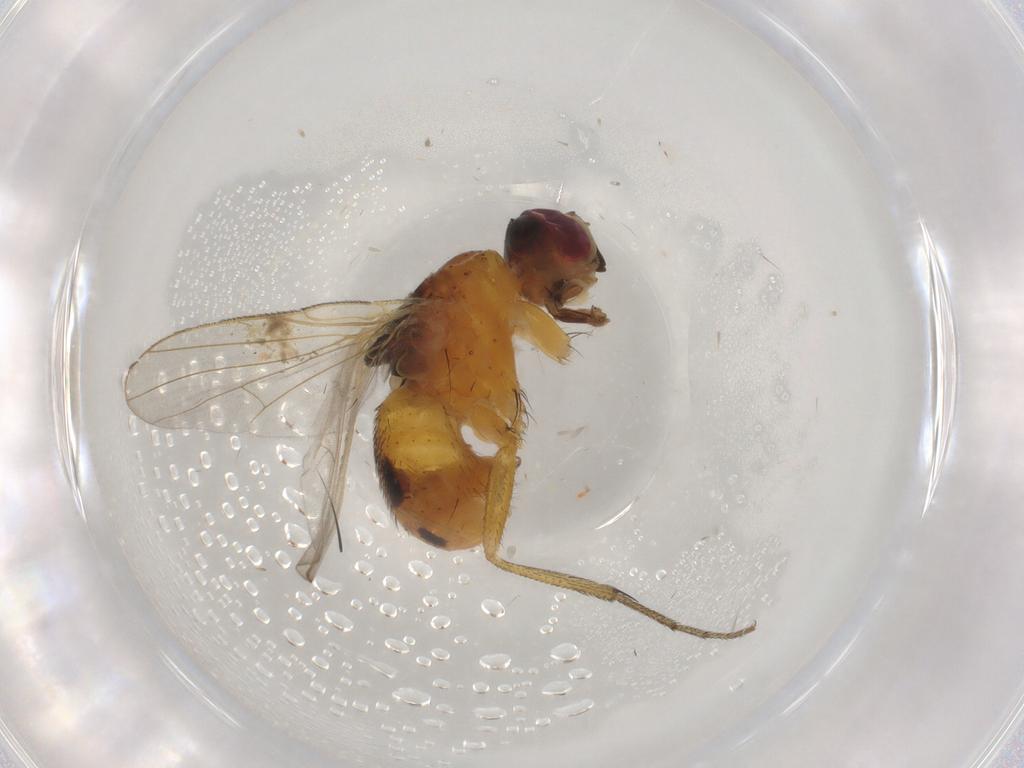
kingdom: Animalia
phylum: Arthropoda
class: Insecta
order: Diptera
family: Muscidae
